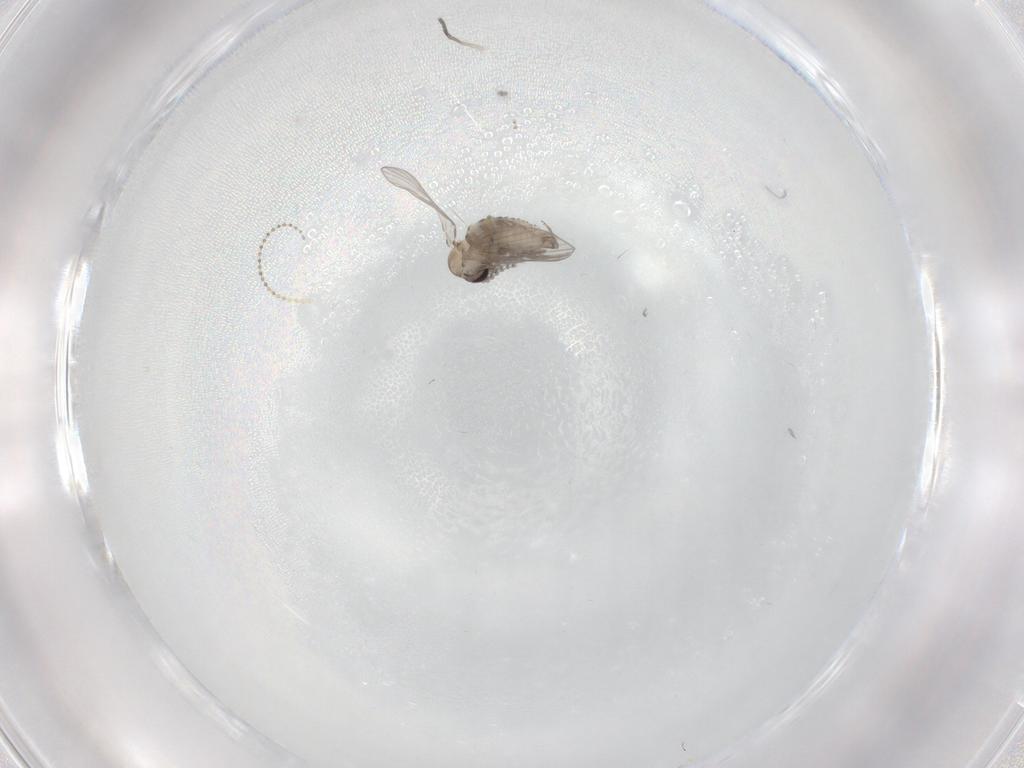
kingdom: Animalia
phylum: Arthropoda
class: Insecta
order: Diptera
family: Psychodidae
